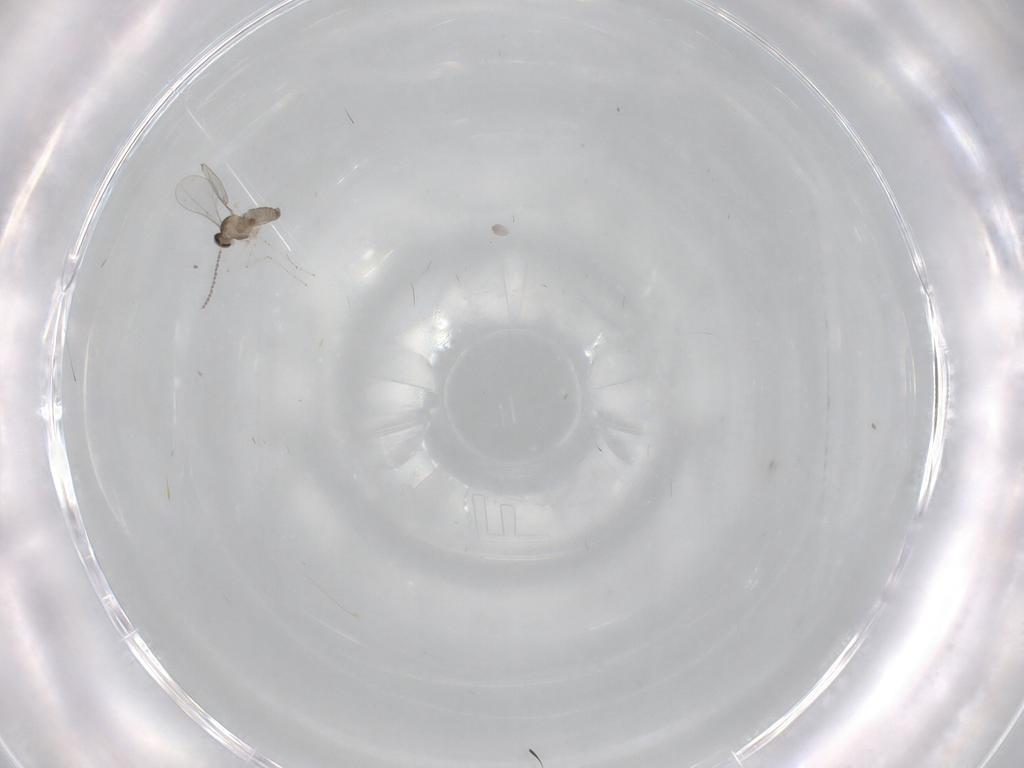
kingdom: Animalia
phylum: Arthropoda
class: Insecta
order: Diptera
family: Cecidomyiidae
